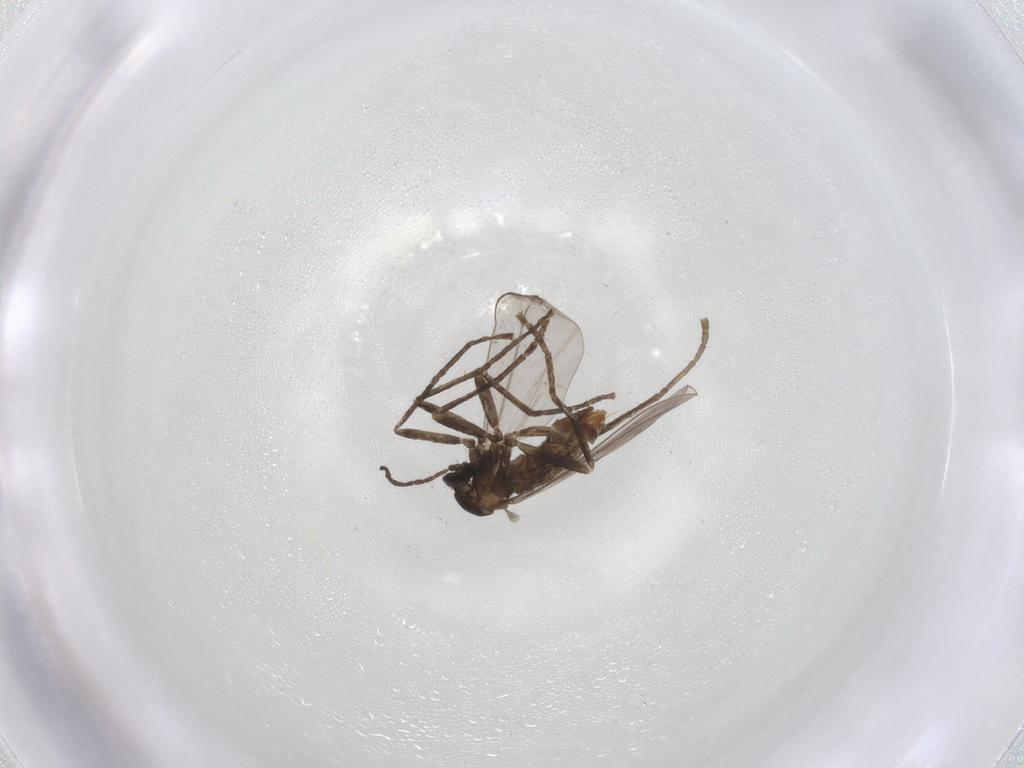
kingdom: Animalia
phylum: Arthropoda
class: Insecta
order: Diptera
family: Cecidomyiidae
